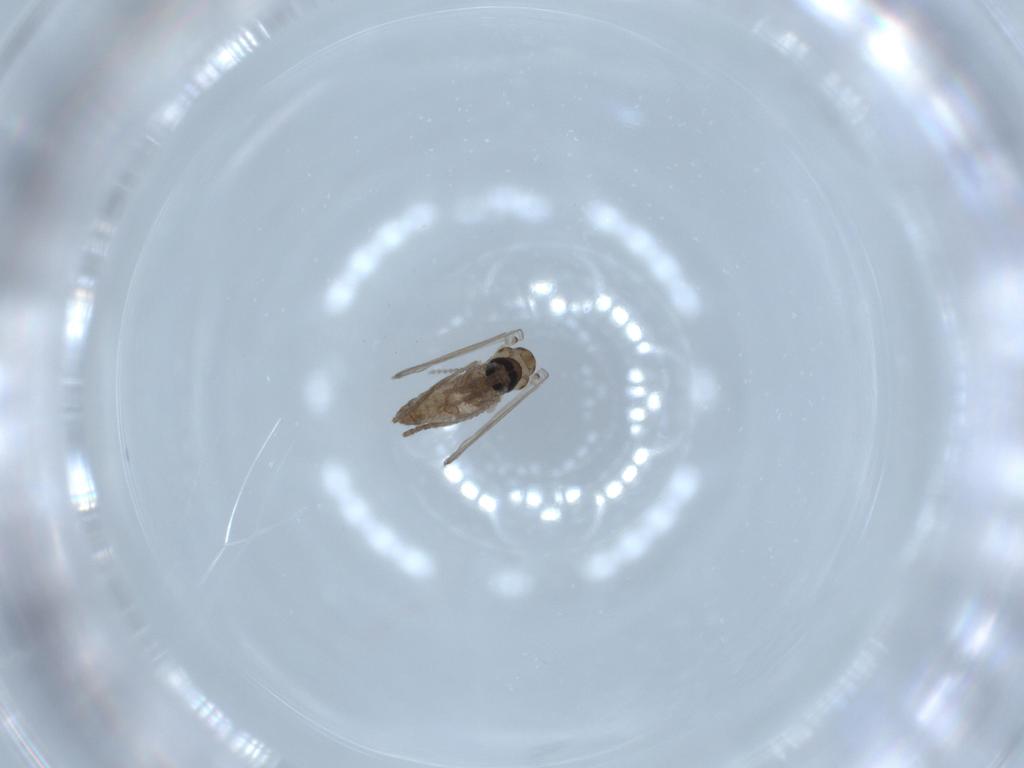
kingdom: Animalia
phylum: Arthropoda
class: Insecta
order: Diptera
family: Psychodidae
